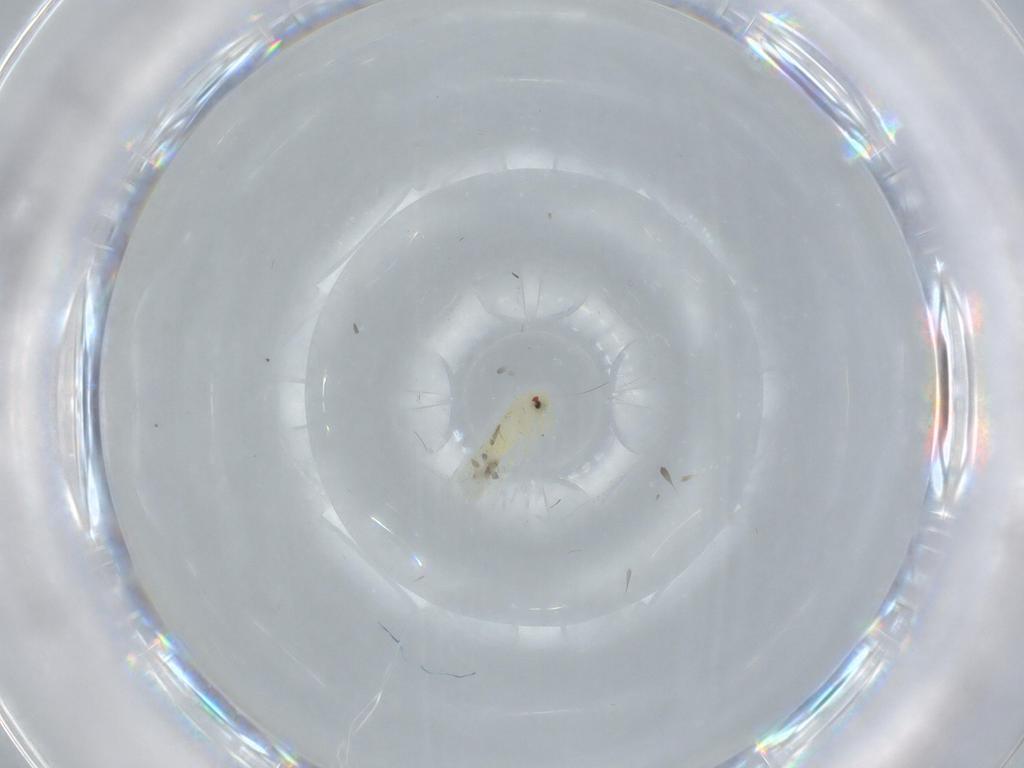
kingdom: Animalia
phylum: Arthropoda
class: Insecta
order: Hemiptera
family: Aleyrodidae
